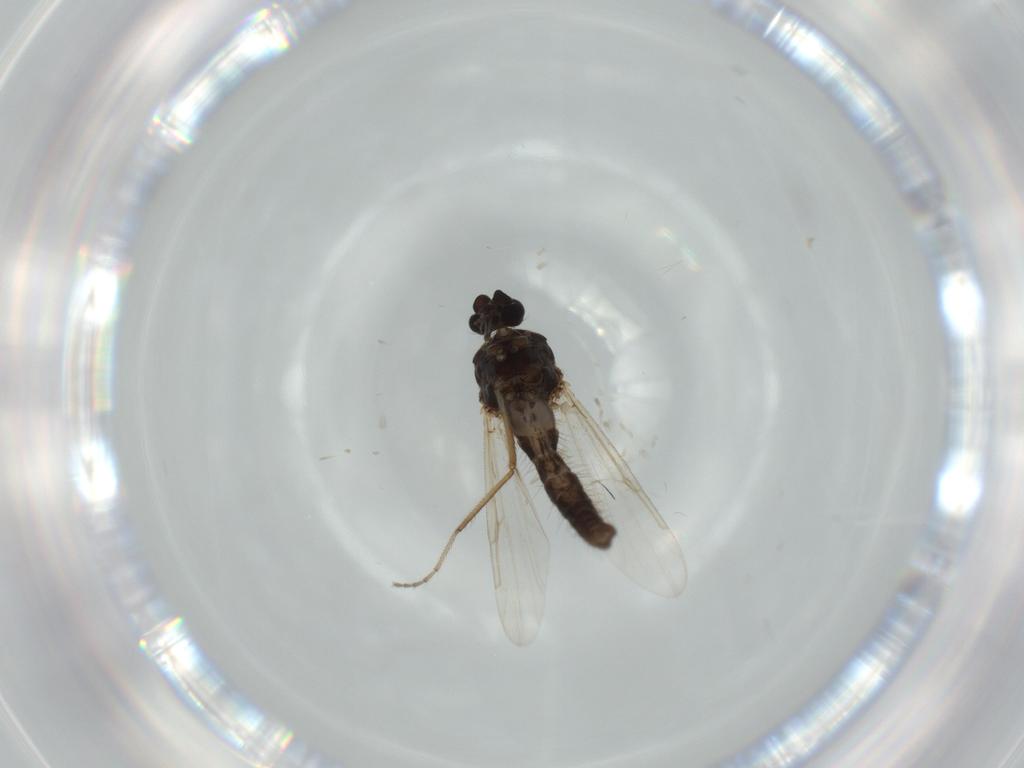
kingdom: Animalia
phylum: Arthropoda
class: Insecta
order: Diptera
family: Ceratopogonidae
